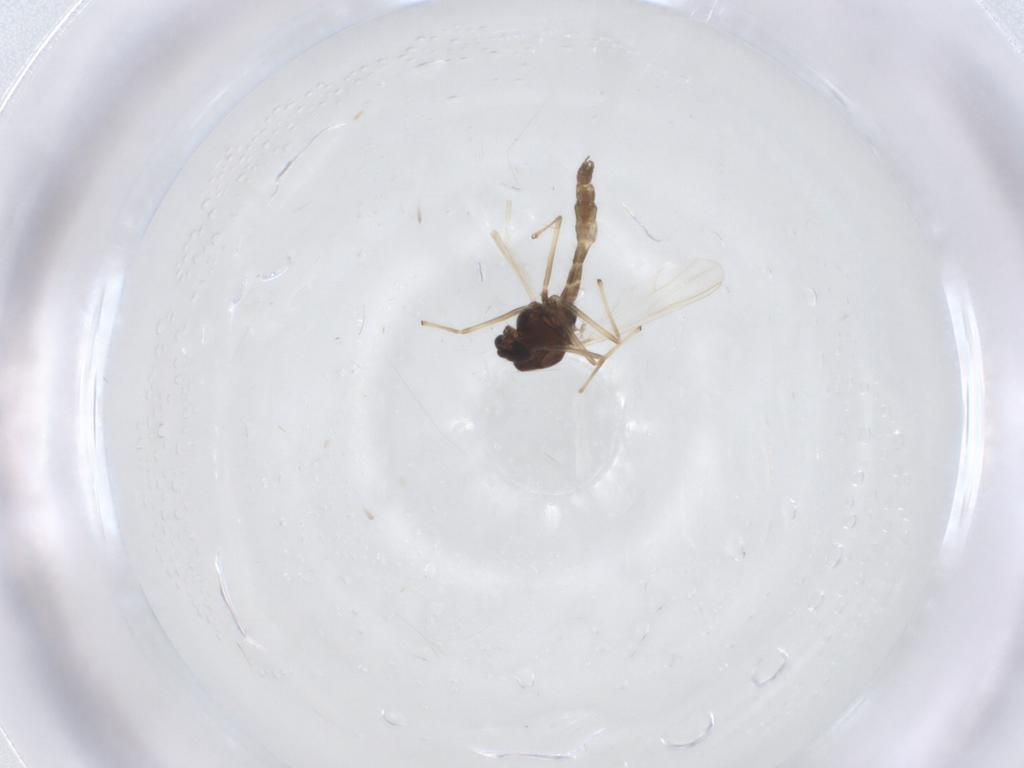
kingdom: Animalia
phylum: Arthropoda
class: Insecta
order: Diptera
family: Chironomidae
